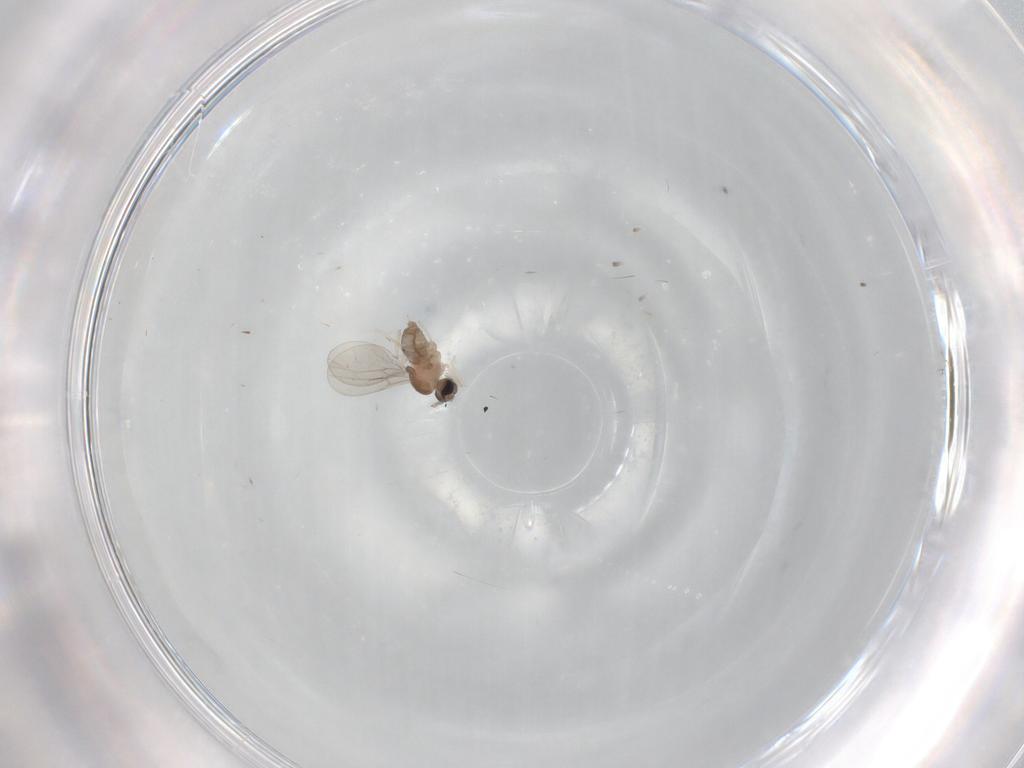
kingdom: Animalia
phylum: Arthropoda
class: Insecta
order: Diptera
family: Cecidomyiidae
